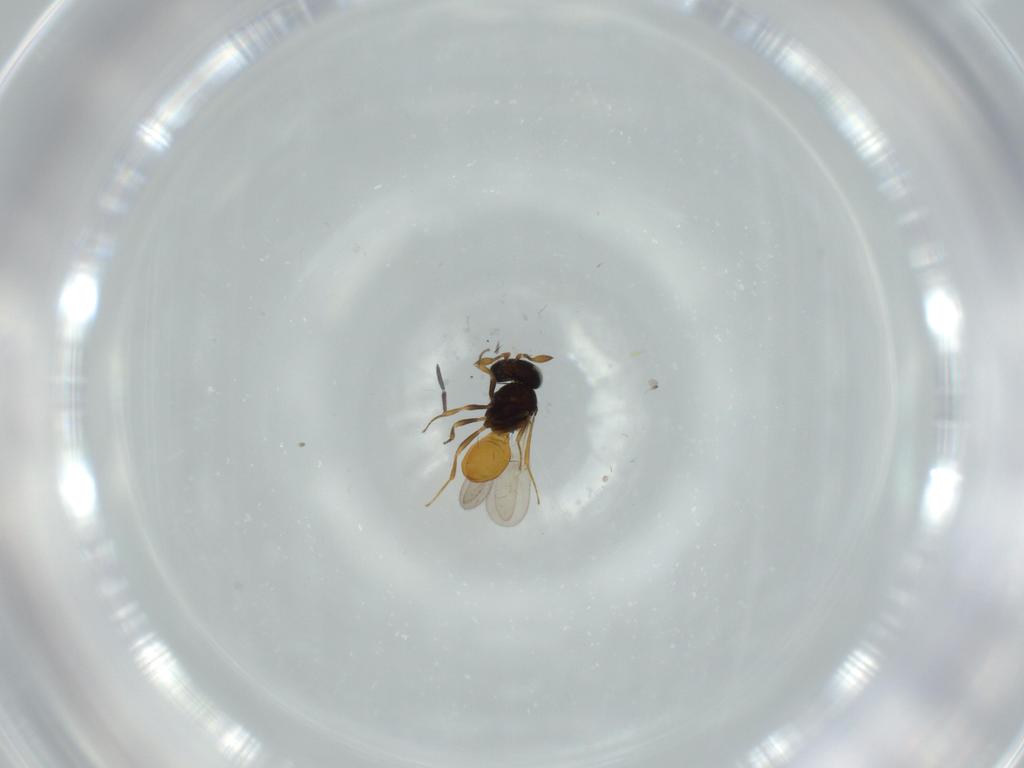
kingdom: Animalia
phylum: Arthropoda
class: Insecta
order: Hymenoptera
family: Scelionidae
